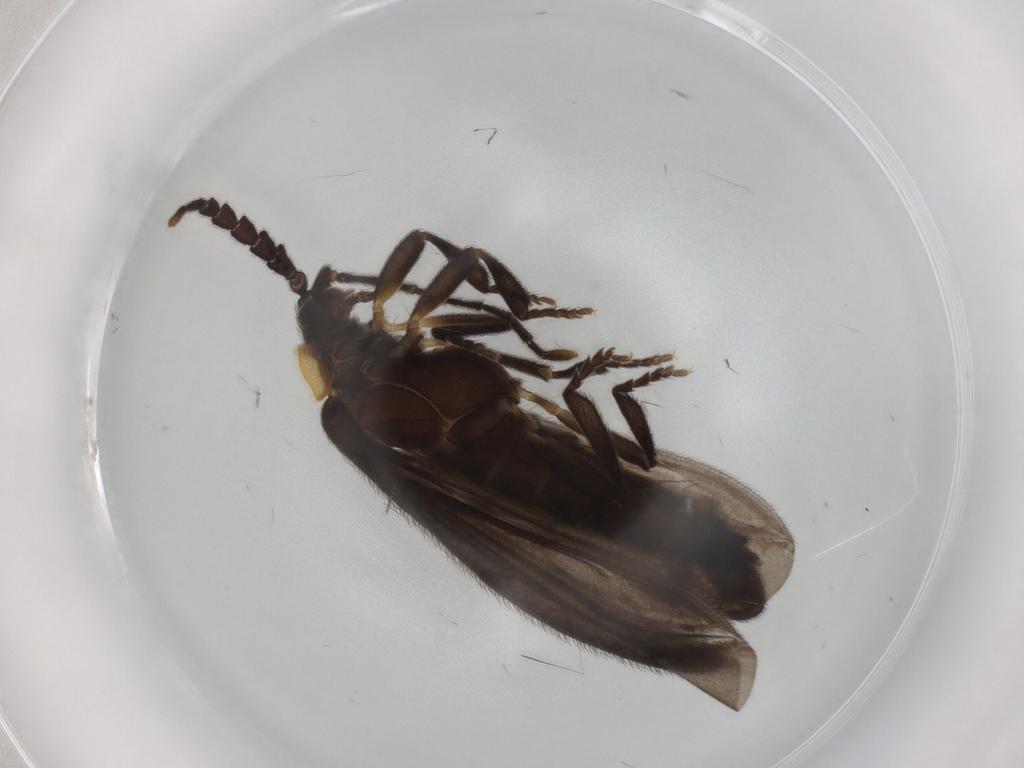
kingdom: Animalia
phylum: Arthropoda
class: Insecta
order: Coleoptera
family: Lycidae
